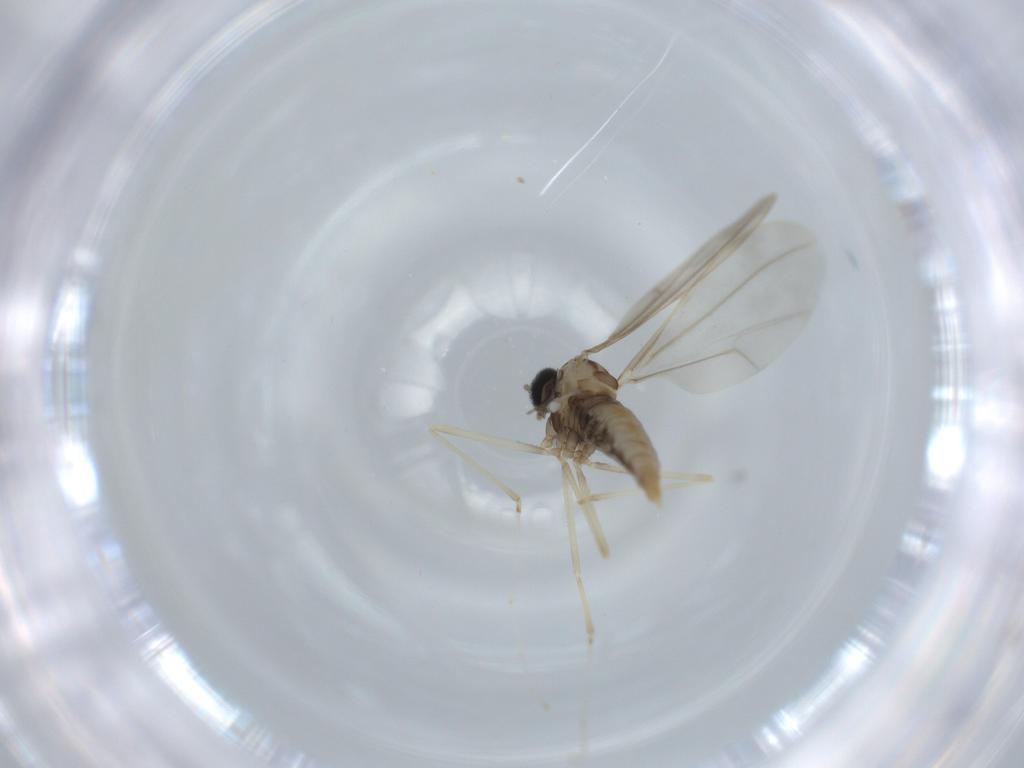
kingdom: Animalia
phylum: Arthropoda
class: Insecta
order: Diptera
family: Cecidomyiidae
